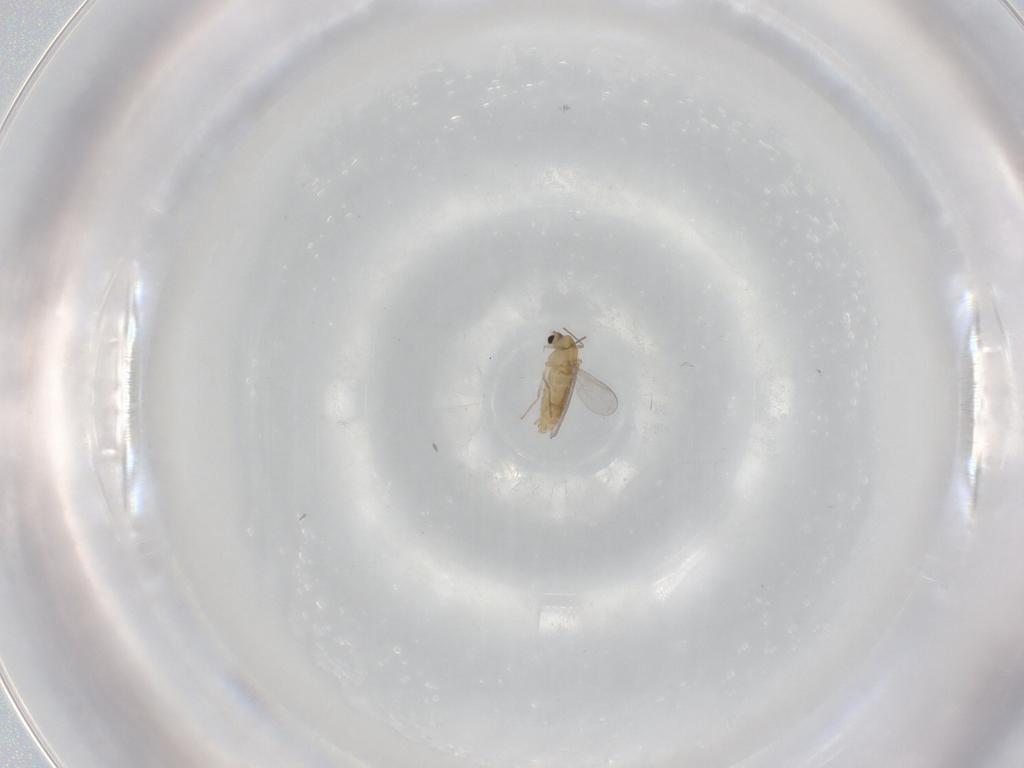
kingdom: Animalia
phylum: Arthropoda
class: Insecta
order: Diptera
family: Chironomidae
